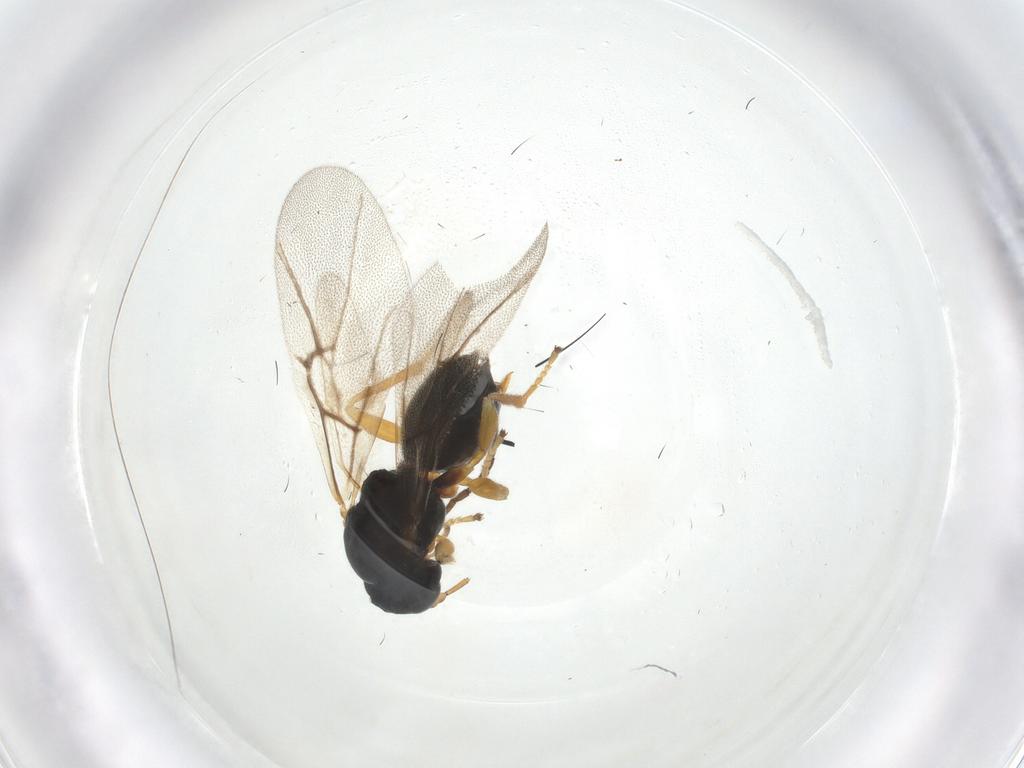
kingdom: Animalia
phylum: Arthropoda
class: Insecta
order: Hymenoptera
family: Cynipidae
